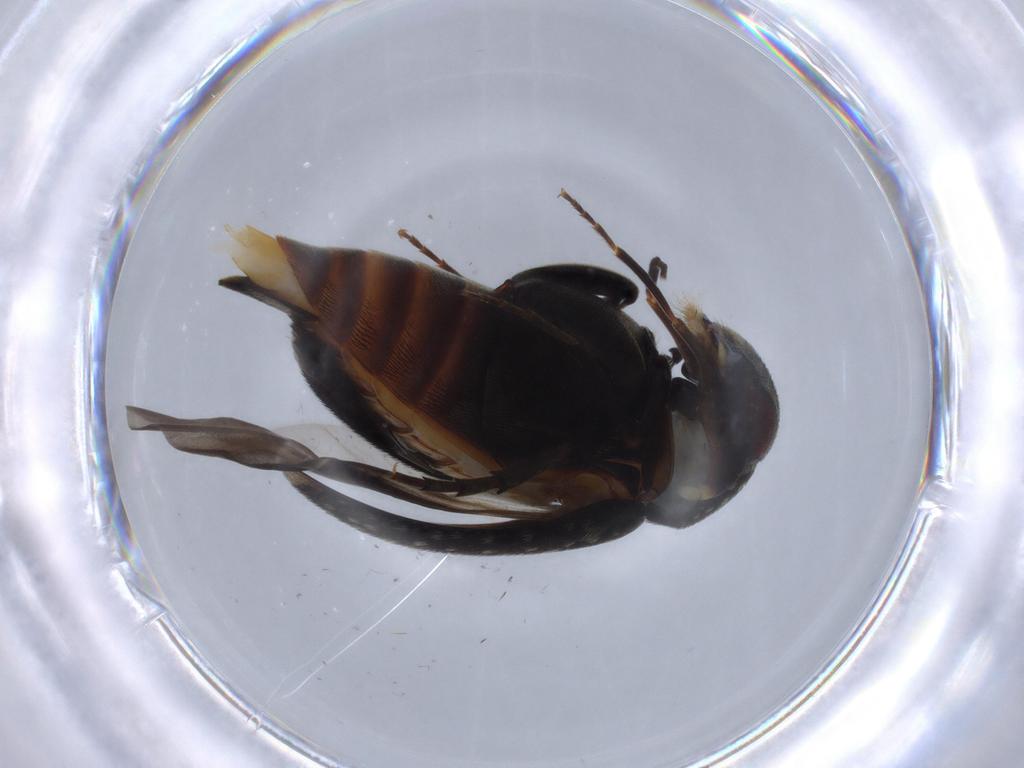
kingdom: Animalia
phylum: Arthropoda
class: Insecta
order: Coleoptera
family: Mordellidae
